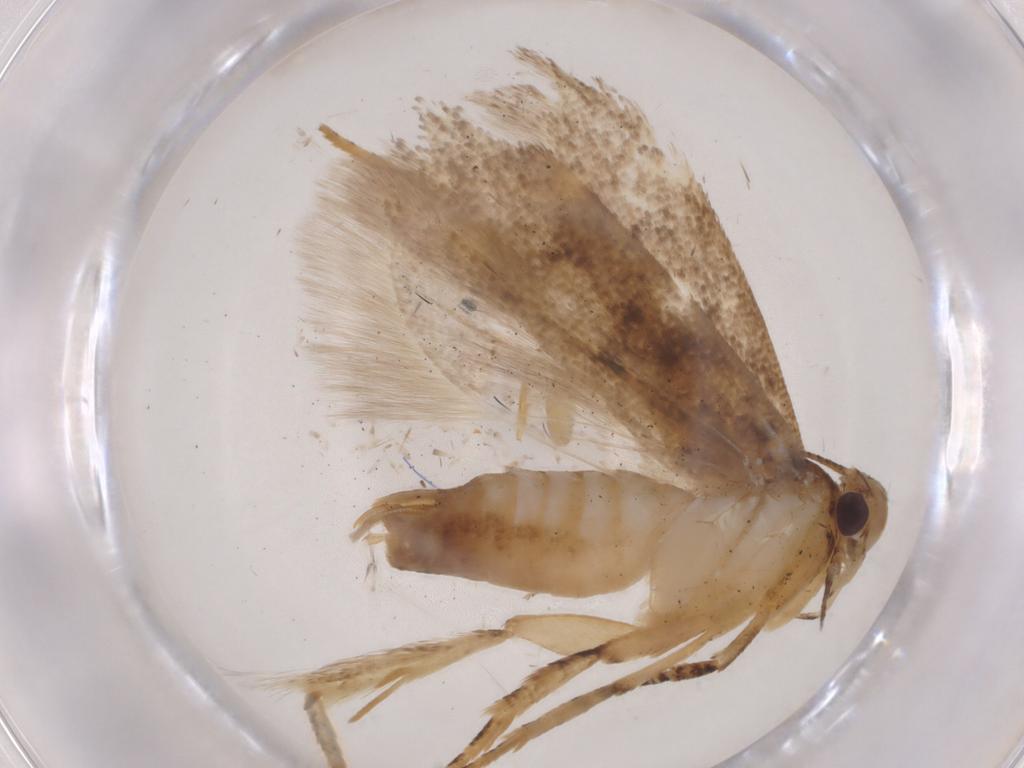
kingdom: Animalia
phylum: Arthropoda
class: Insecta
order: Lepidoptera
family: Gelechiidae
